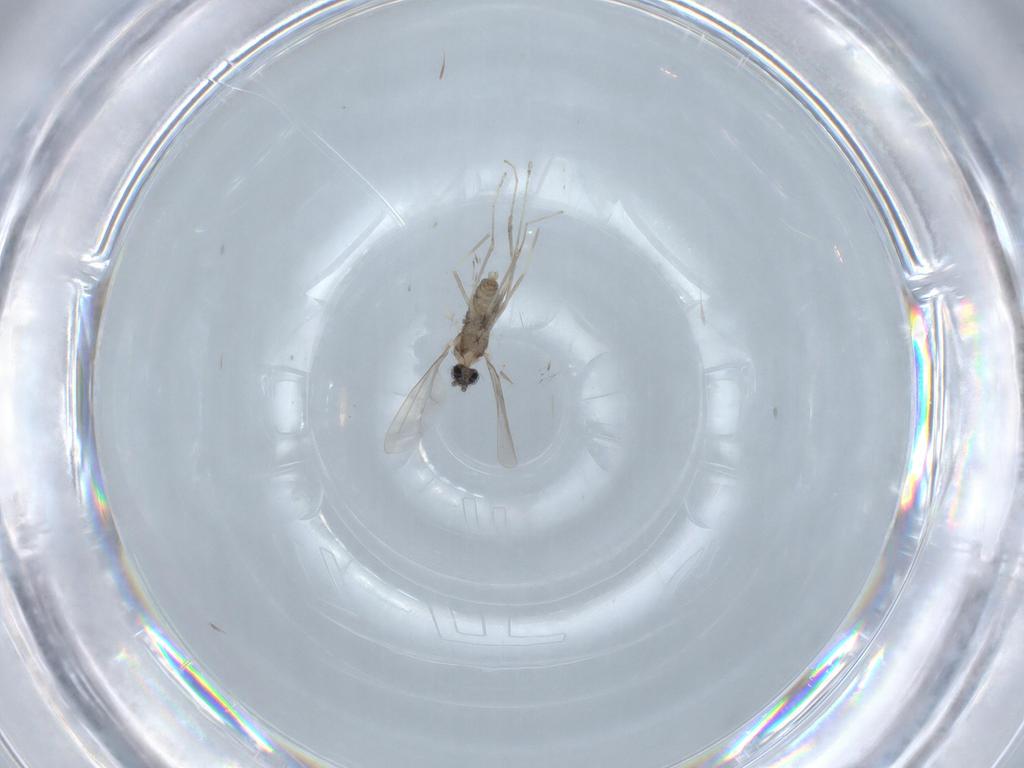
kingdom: Animalia
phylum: Arthropoda
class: Insecta
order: Diptera
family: Cecidomyiidae
